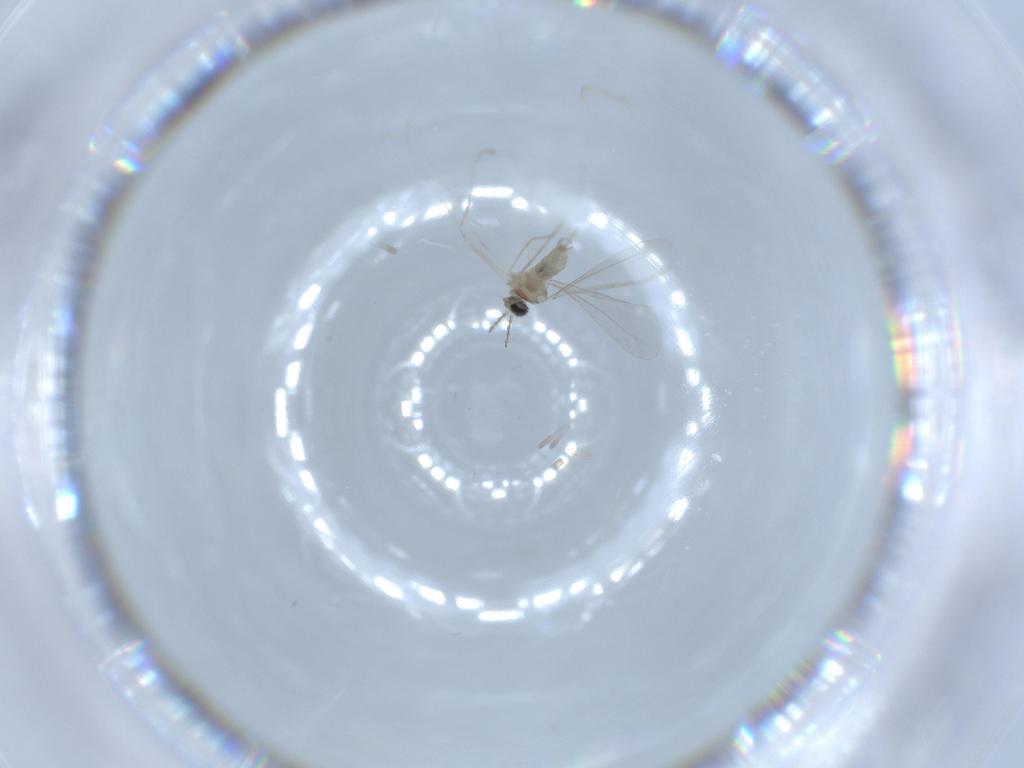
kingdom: Animalia
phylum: Arthropoda
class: Insecta
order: Diptera
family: Cecidomyiidae
